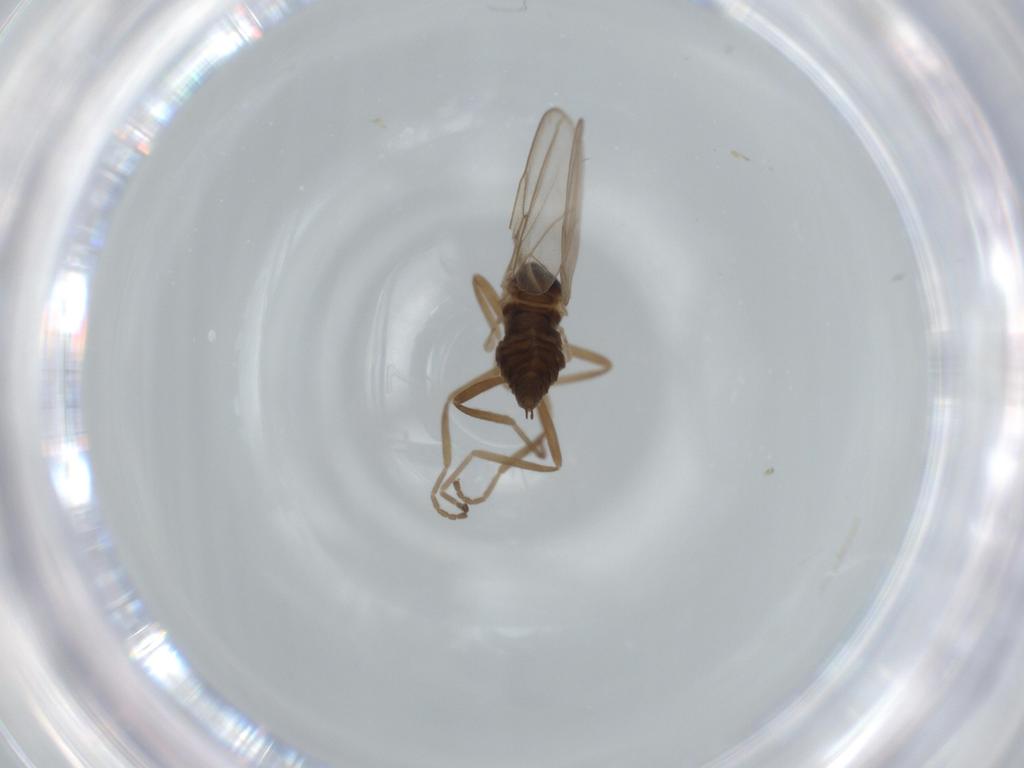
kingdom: Animalia
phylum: Arthropoda
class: Insecta
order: Diptera
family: Cecidomyiidae
